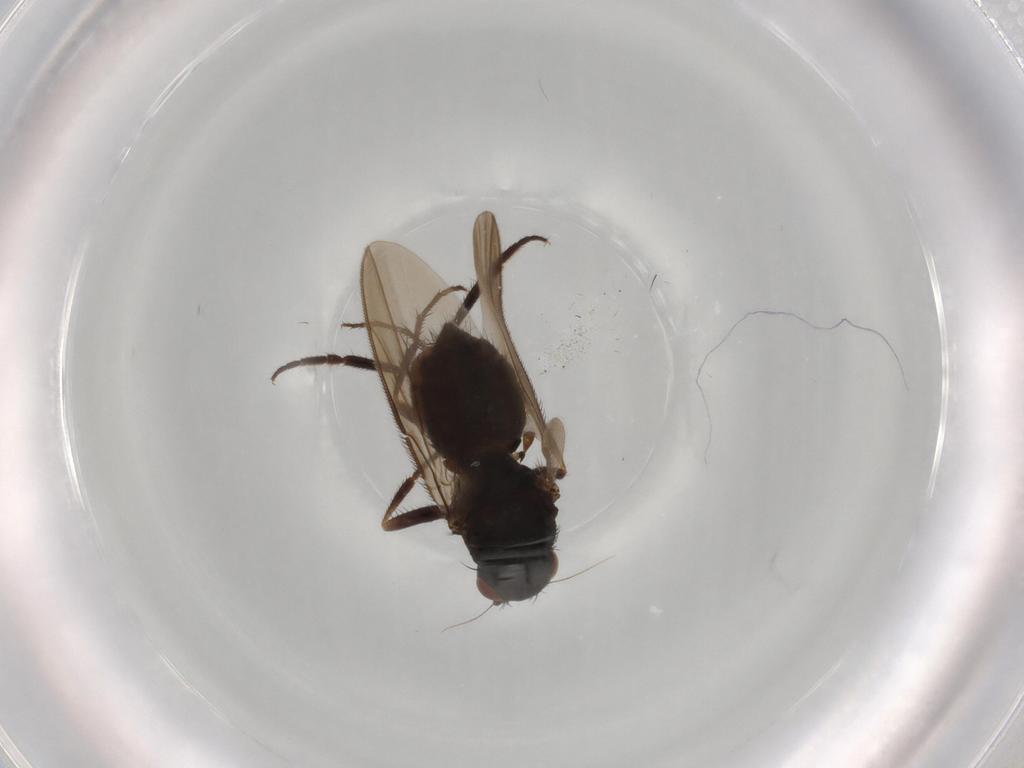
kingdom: Animalia
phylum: Arthropoda
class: Insecta
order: Diptera
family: Sphaeroceridae
